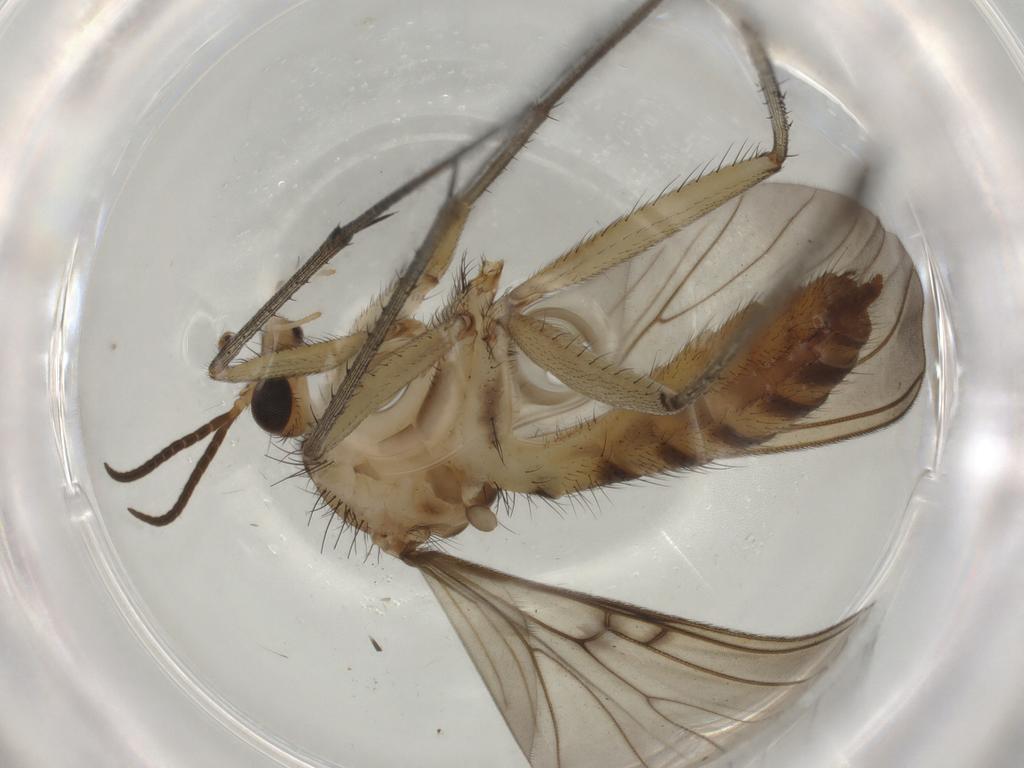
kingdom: Animalia
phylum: Arthropoda
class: Insecta
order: Diptera
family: Mycetophilidae
